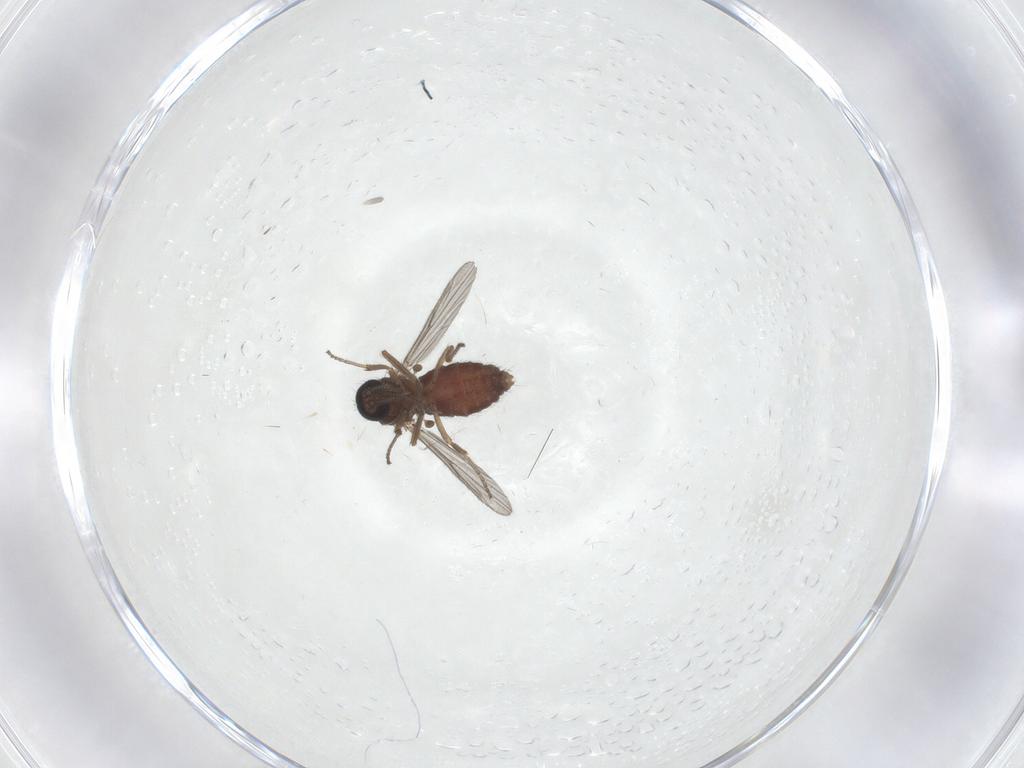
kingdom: Animalia
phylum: Arthropoda
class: Insecta
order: Diptera
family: Ceratopogonidae
